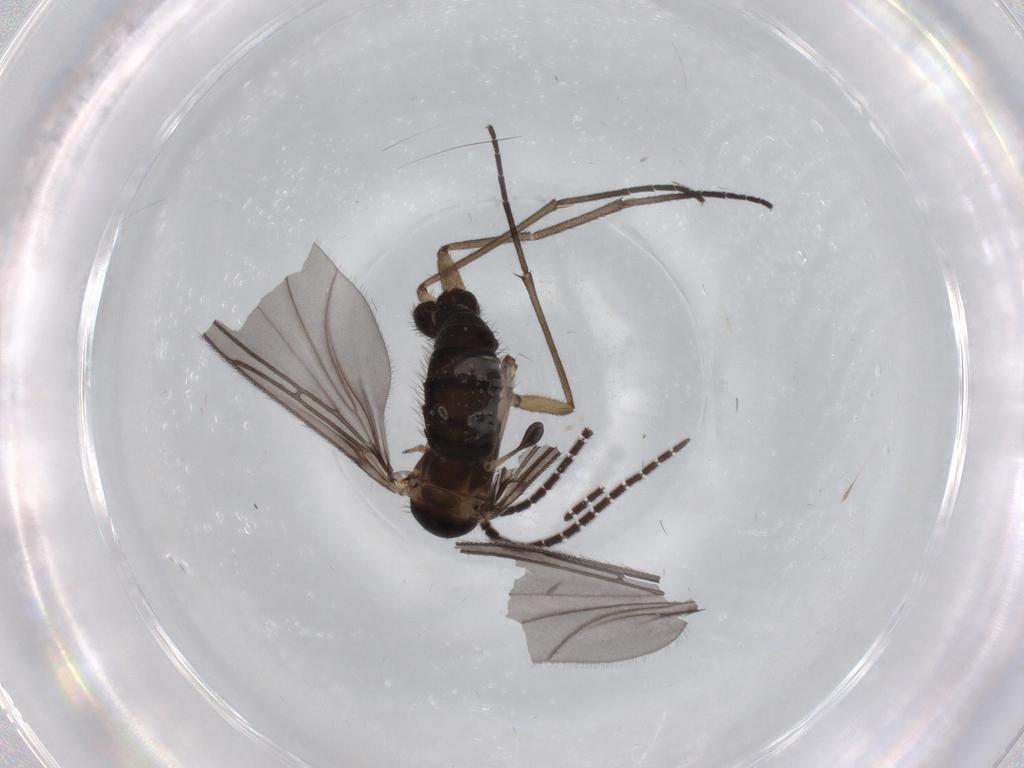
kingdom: Animalia
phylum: Arthropoda
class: Insecta
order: Diptera
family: Sciaridae
